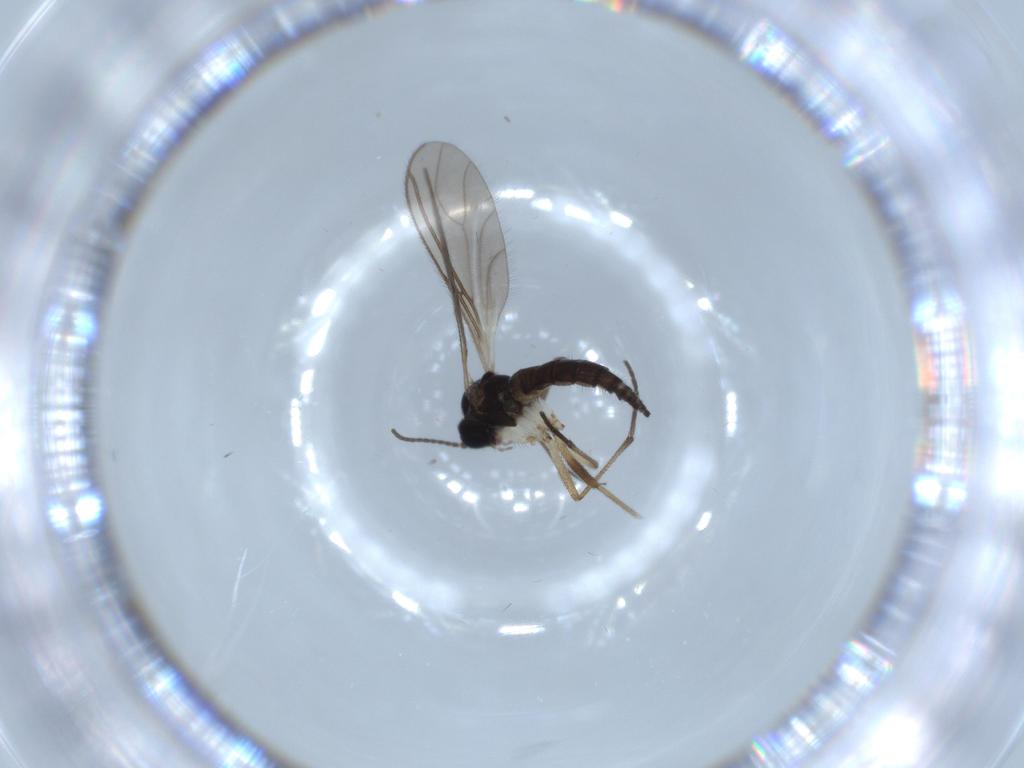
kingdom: Animalia
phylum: Arthropoda
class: Insecta
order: Diptera
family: Sciaridae
